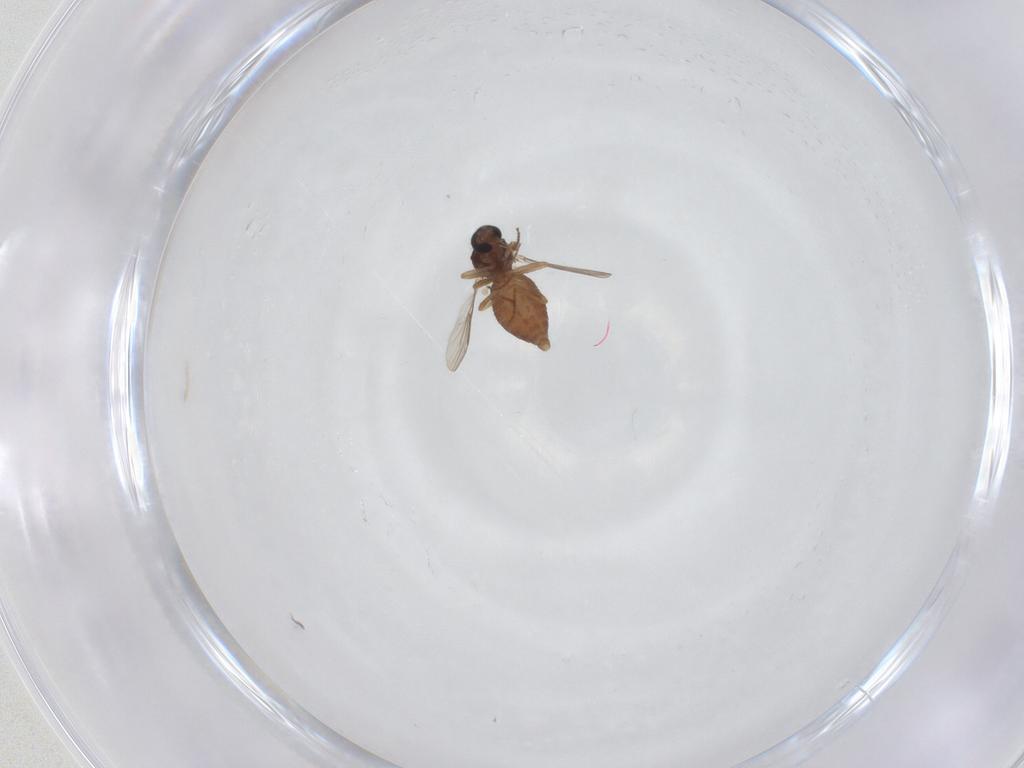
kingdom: Animalia
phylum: Arthropoda
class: Insecta
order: Diptera
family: Ceratopogonidae
